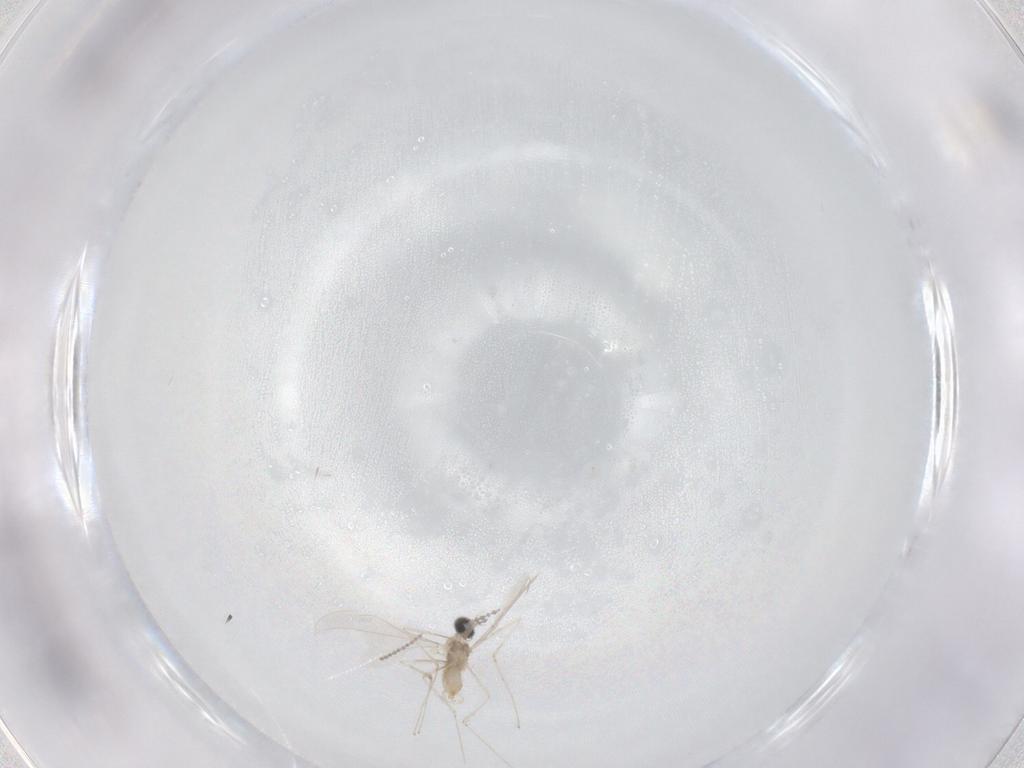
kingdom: Animalia
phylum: Arthropoda
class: Insecta
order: Diptera
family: Cecidomyiidae
